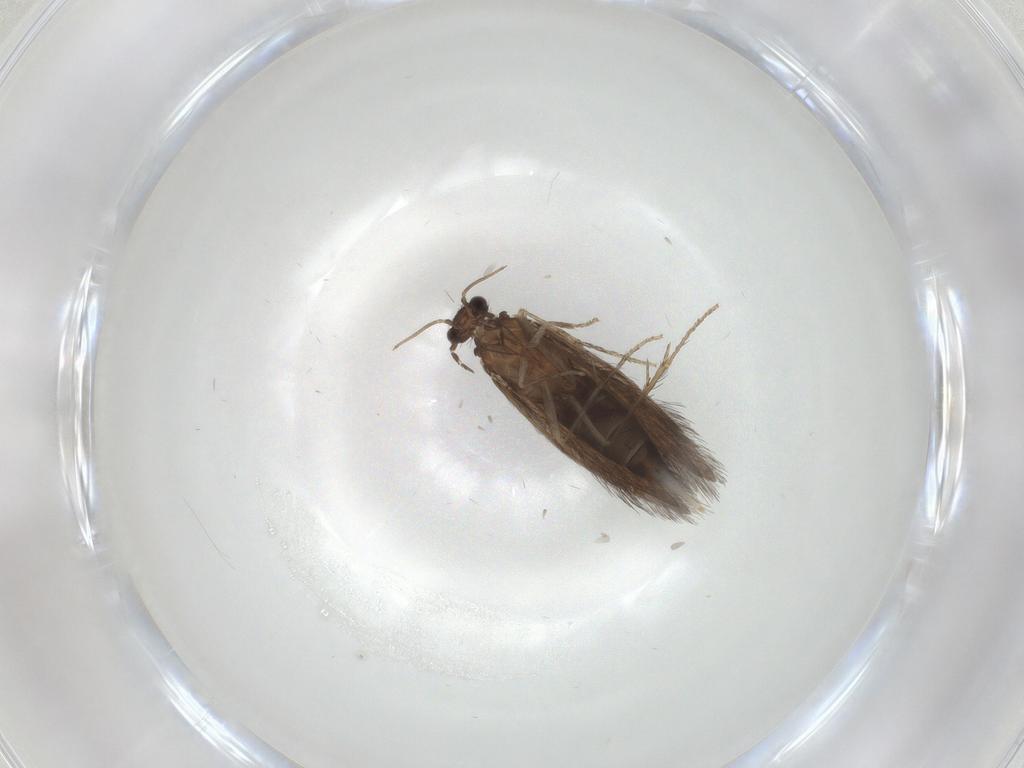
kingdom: Animalia
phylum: Arthropoda
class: Insecta
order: Trichoptera
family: Hydroptilidae
